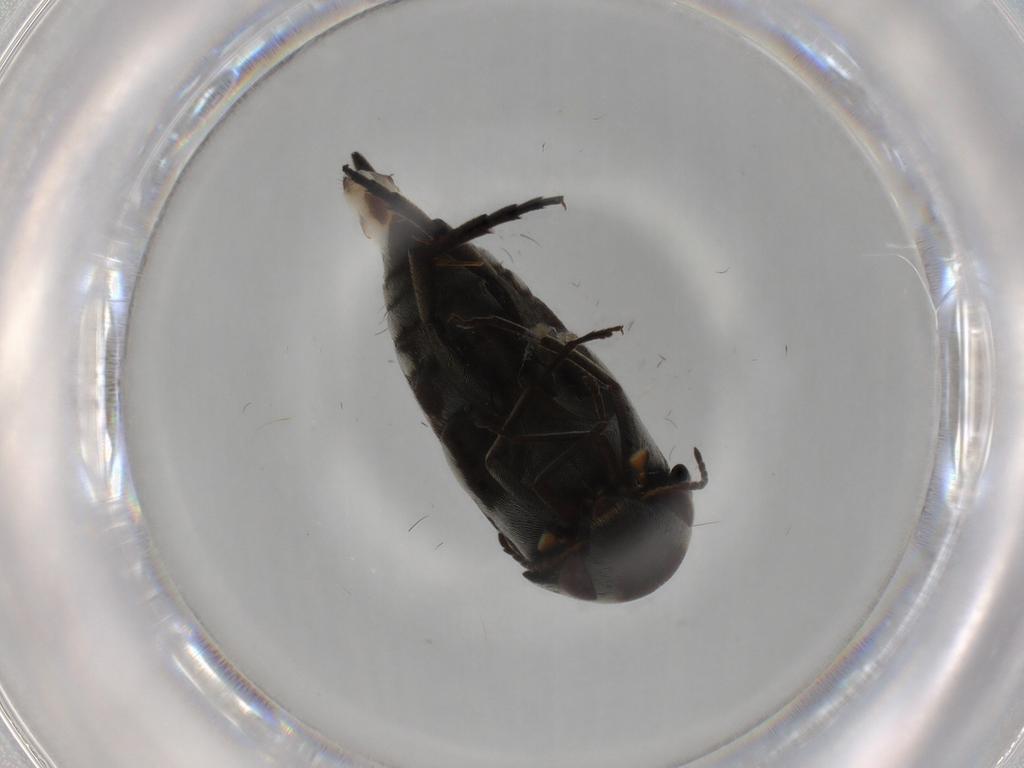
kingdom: Animalia
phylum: Arthropoda
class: Insecta
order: Coleoptera
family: Mordellidae
